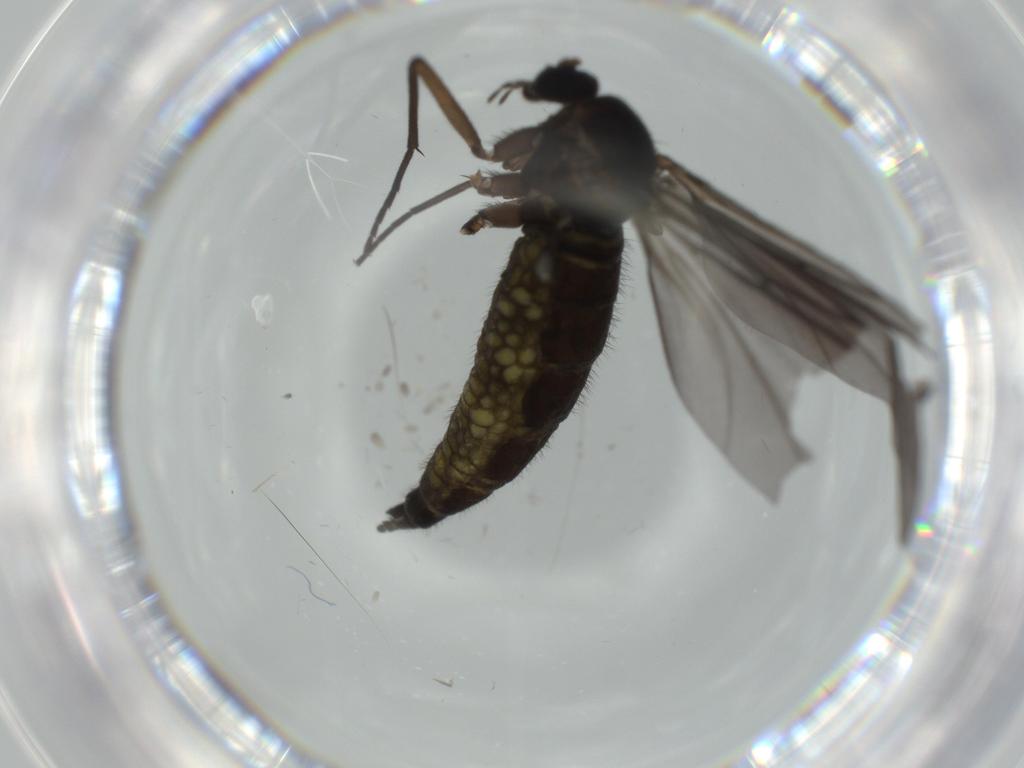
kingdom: Animalia
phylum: Arthropoda
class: Insecta
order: Diptera
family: Sciaridae
